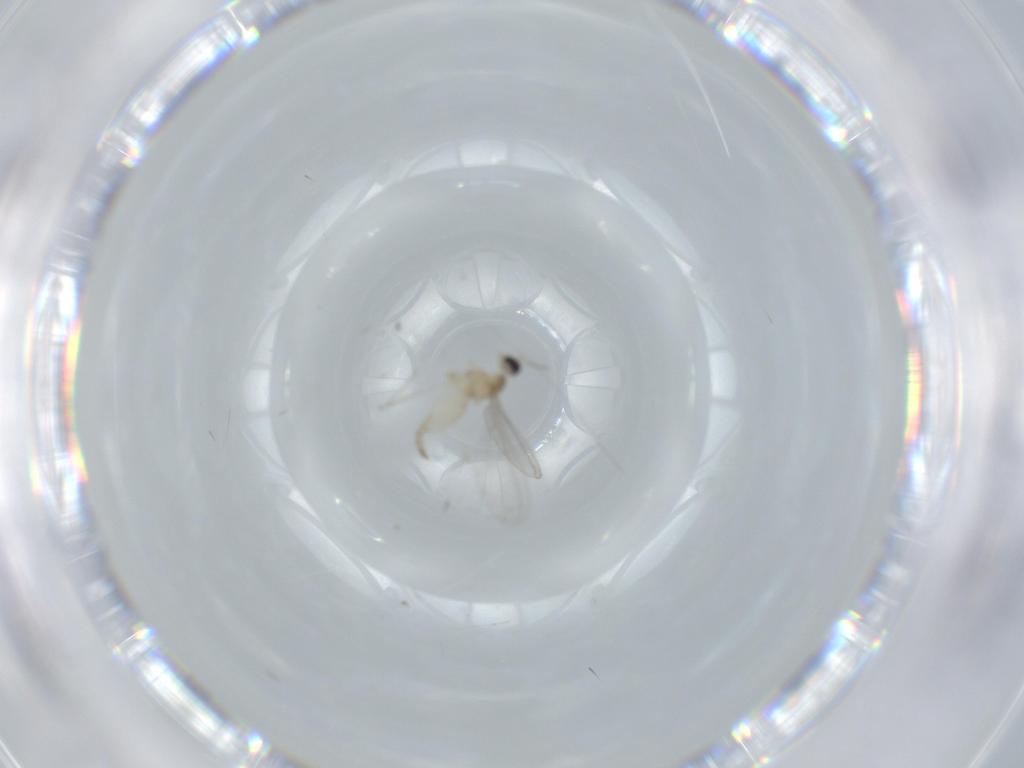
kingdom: Animalia
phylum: Arthropoda
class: Insecta
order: Diptera
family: Cecidomyiidae
